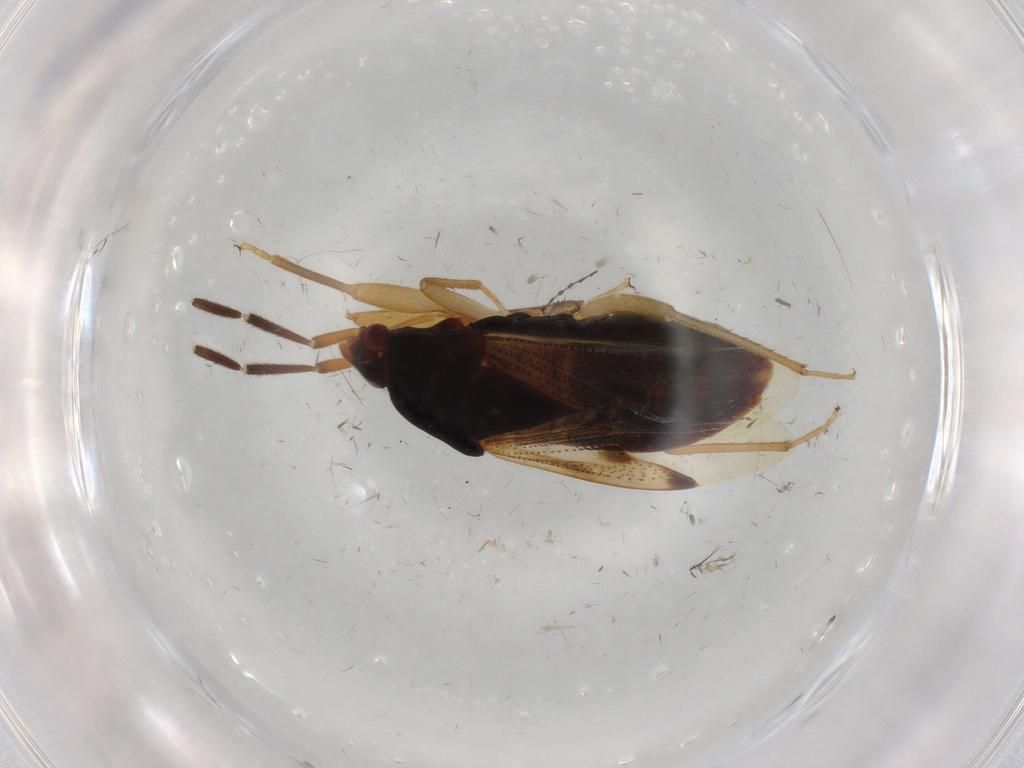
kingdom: Animalia
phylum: Arthropoda
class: Insecta
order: Hemiptera
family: Rhyparochromidae
